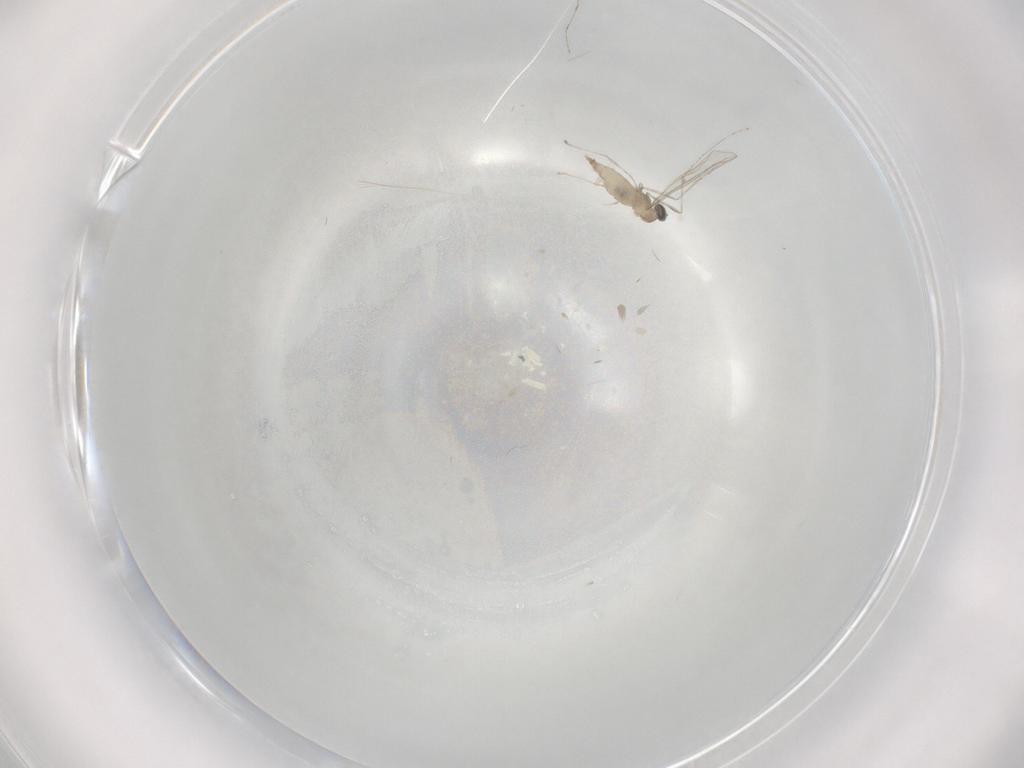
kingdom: Animalia
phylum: Arthropoda
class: Insecta
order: Diptera
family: Cecidomyiidae
